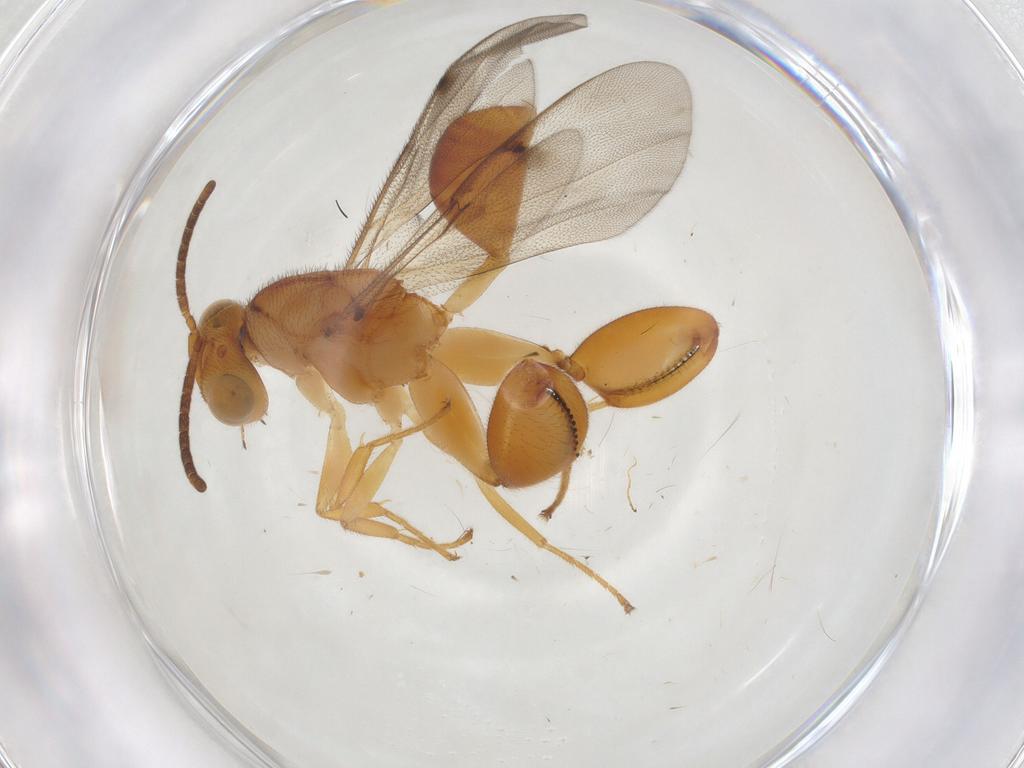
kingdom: Animalia
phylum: Arthropoda
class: Insecta
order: Hymenoptera
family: Chalcididae
